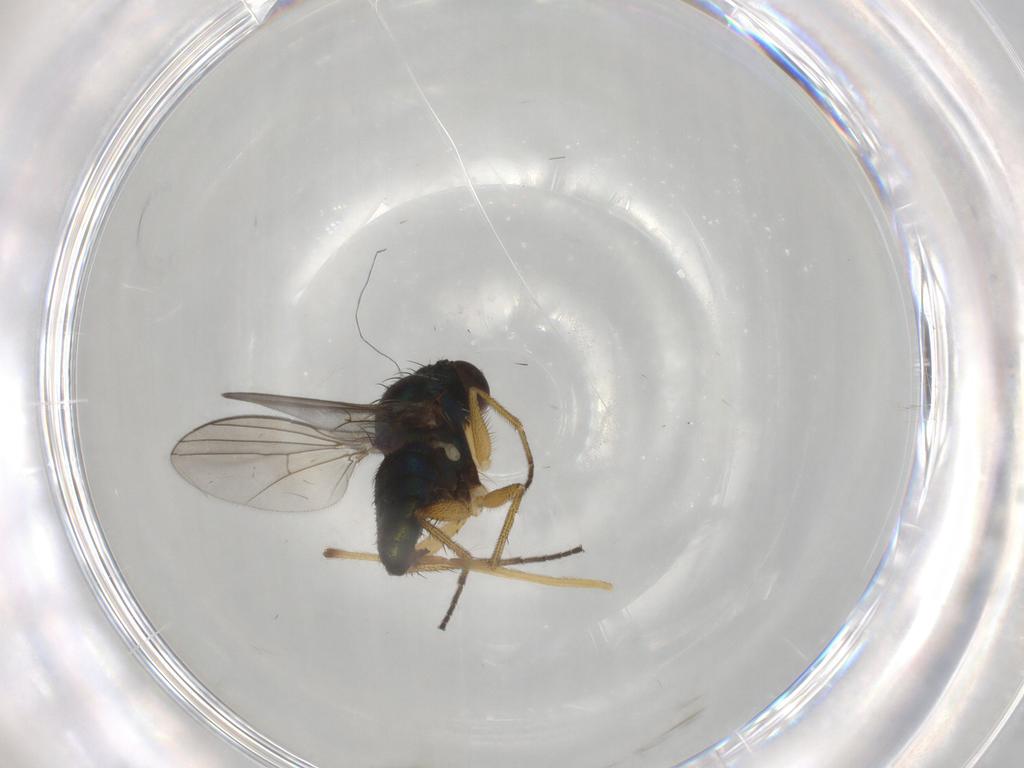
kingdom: Animalia
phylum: Arthropoda
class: Insecta
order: Diptera
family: Dolichopodidae
